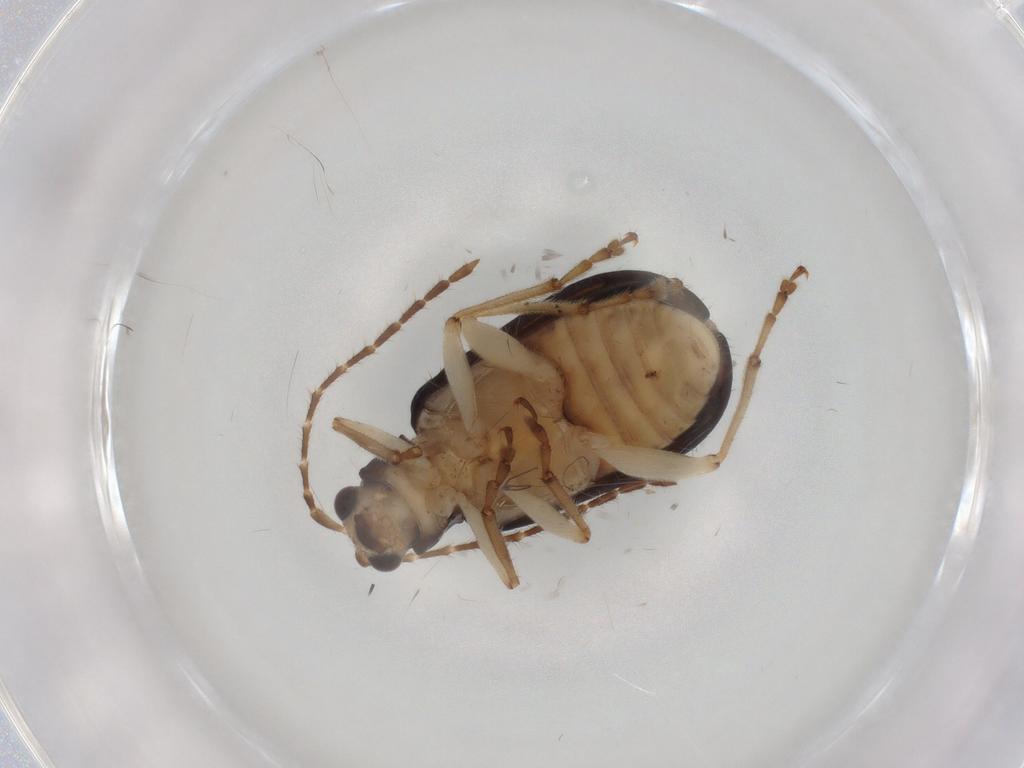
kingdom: Animalia
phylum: Arthropoda
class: Insecta
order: Coleoptera
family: Chrysomelidae
